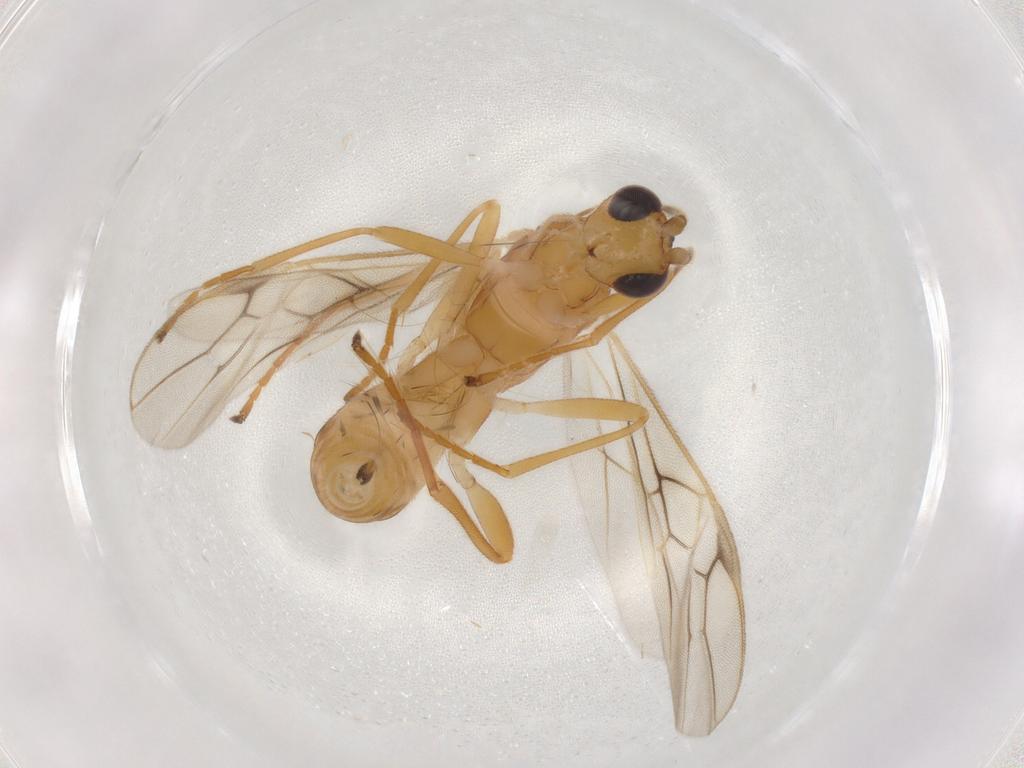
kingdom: Animalia
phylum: Arthropoda
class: Insecta
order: Hymenoptera
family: Braconidae
